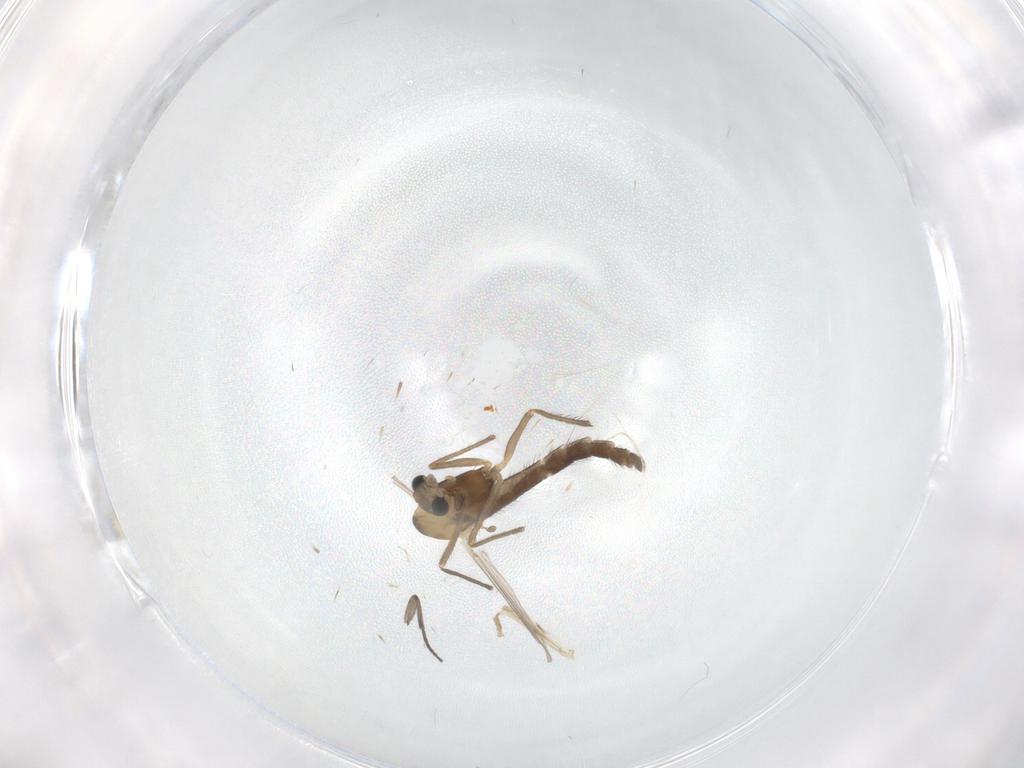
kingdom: Animalia
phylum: Arthropoda
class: Insecta
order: Diptera
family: Chironomidae
